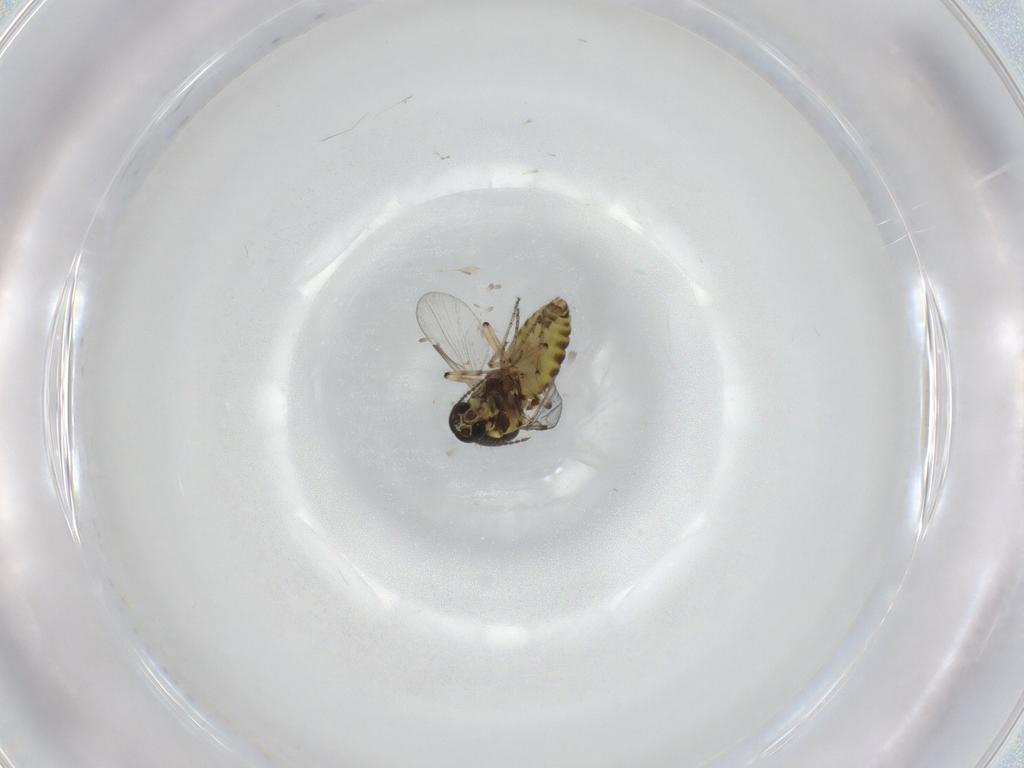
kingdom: Animalia
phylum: Arthropoda
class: Insecta
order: Diptera
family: Cecidomyiidae
